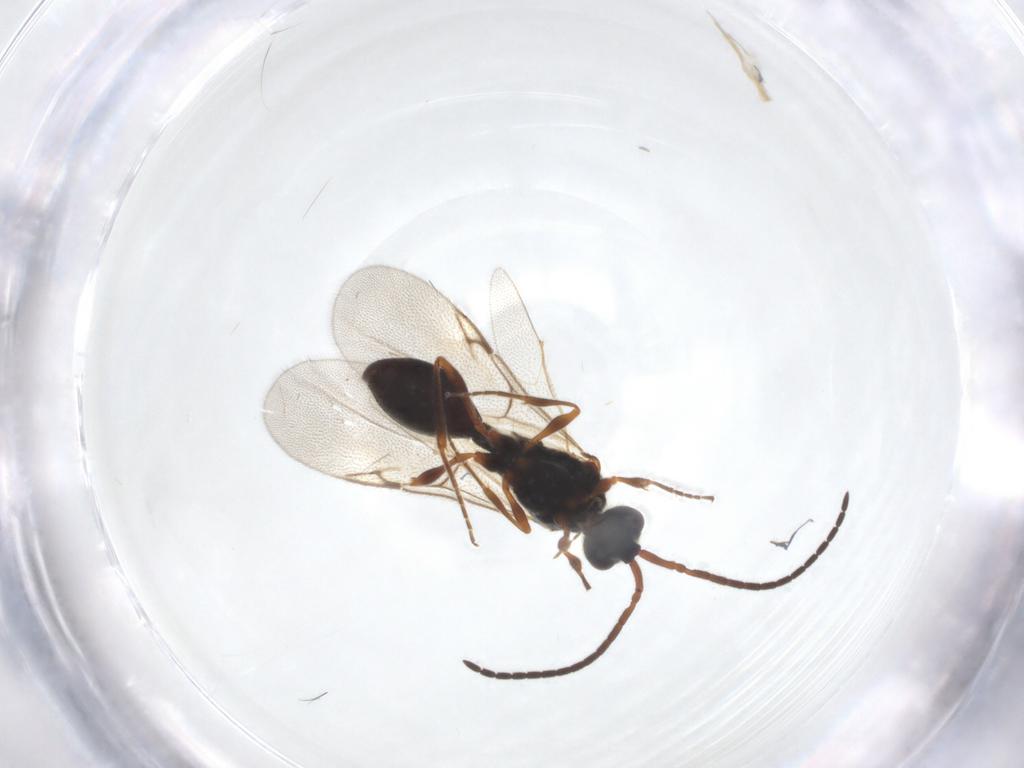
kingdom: Animalia
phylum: Arthropoda
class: Insecta
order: Hymenoptera
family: Diapriidae
